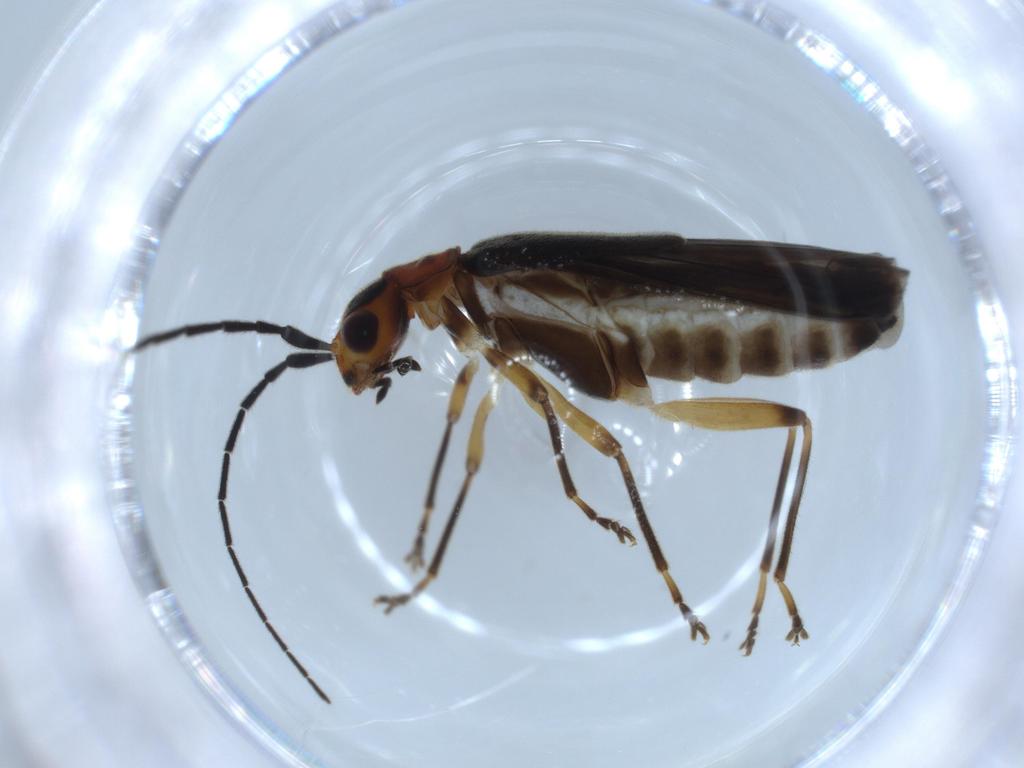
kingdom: Animalia
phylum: Arthropoda
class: Insecta
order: Coleoptera
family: Cantharidae
